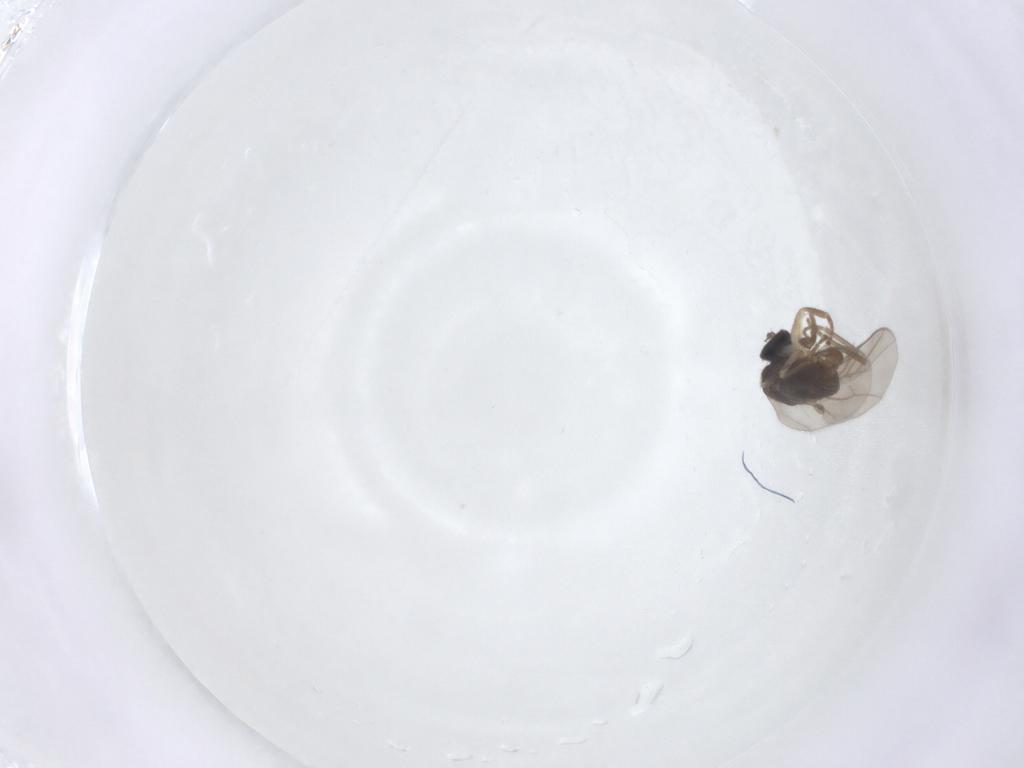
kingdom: Animalia
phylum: Arthropoda
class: Insecta
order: Diptera
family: Hybotidae
